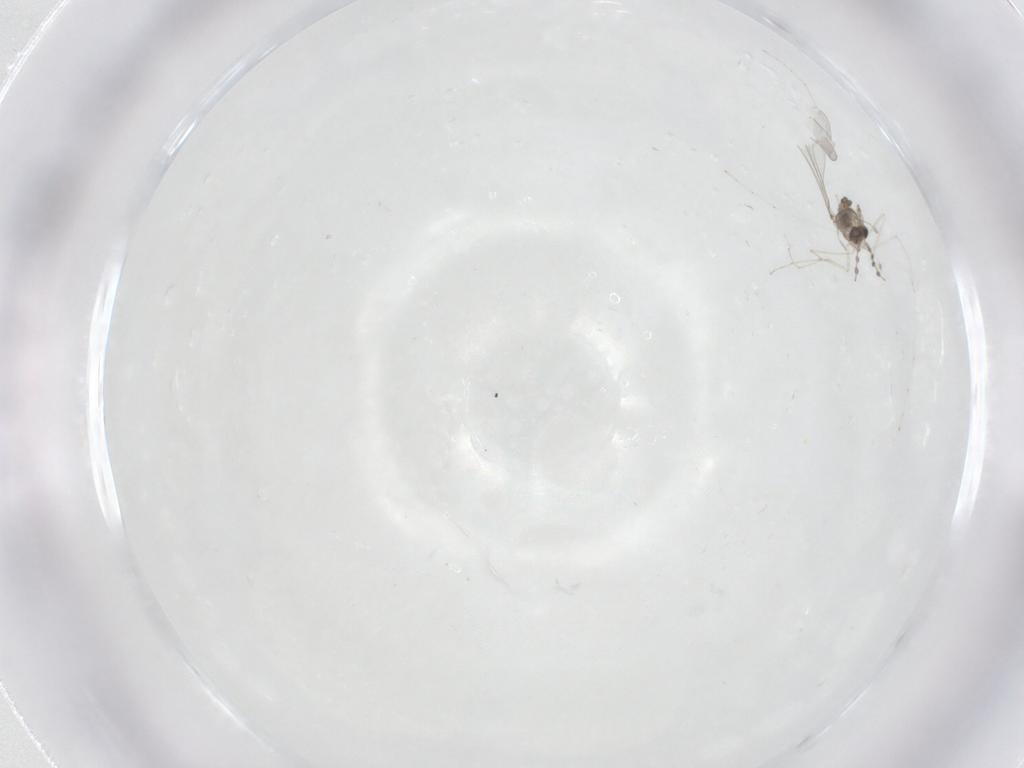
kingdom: Animalia
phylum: Arthropoda
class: Insecta
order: Diptera
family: Cecidomyiidae
